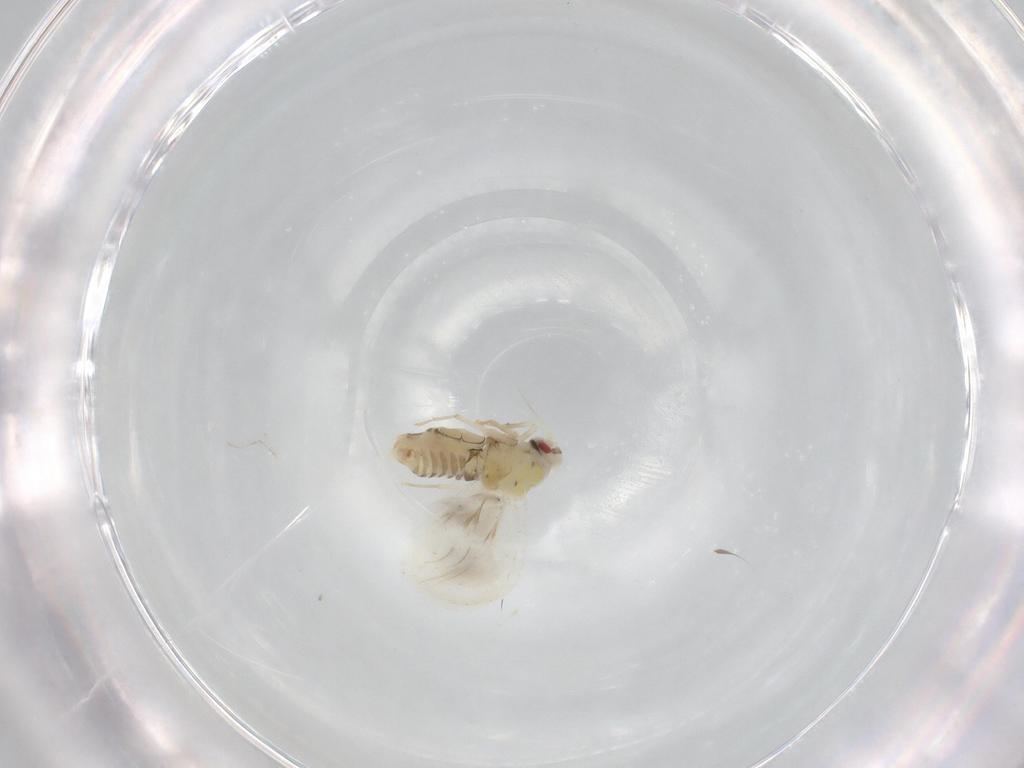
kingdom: Animalia
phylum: Arthropoda
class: Insecta
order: Hemiptera
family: Aleyrodidae
